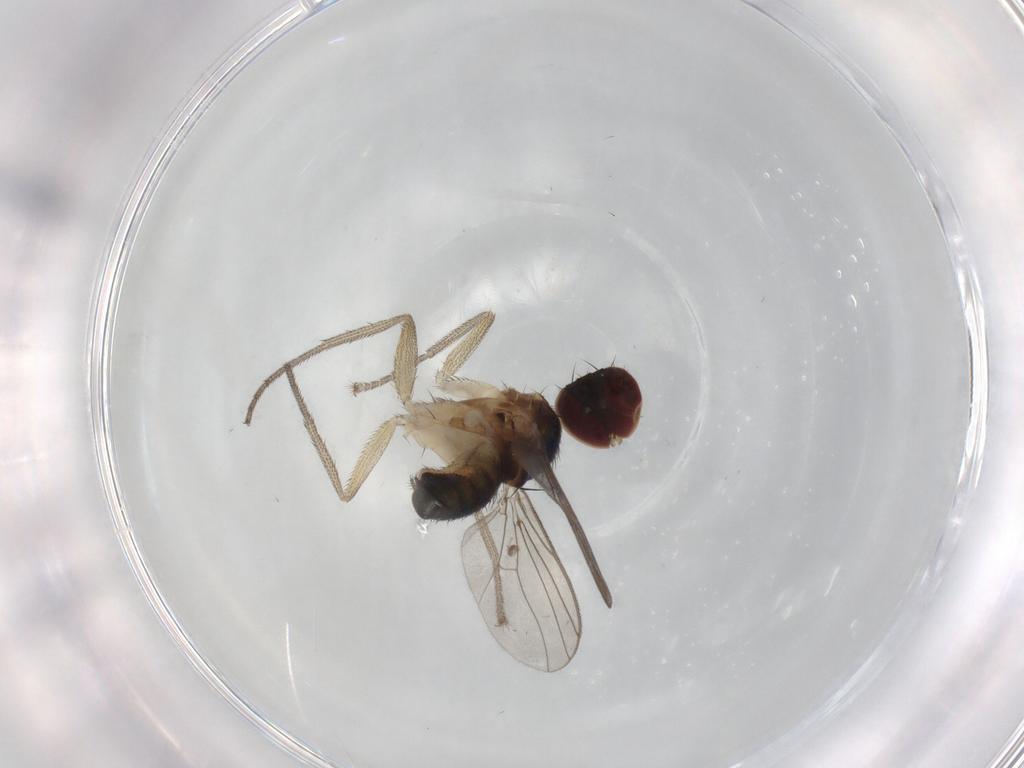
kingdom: Animalia
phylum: Arthropoda
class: Insecta
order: Diptera
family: Dolichopodidae
